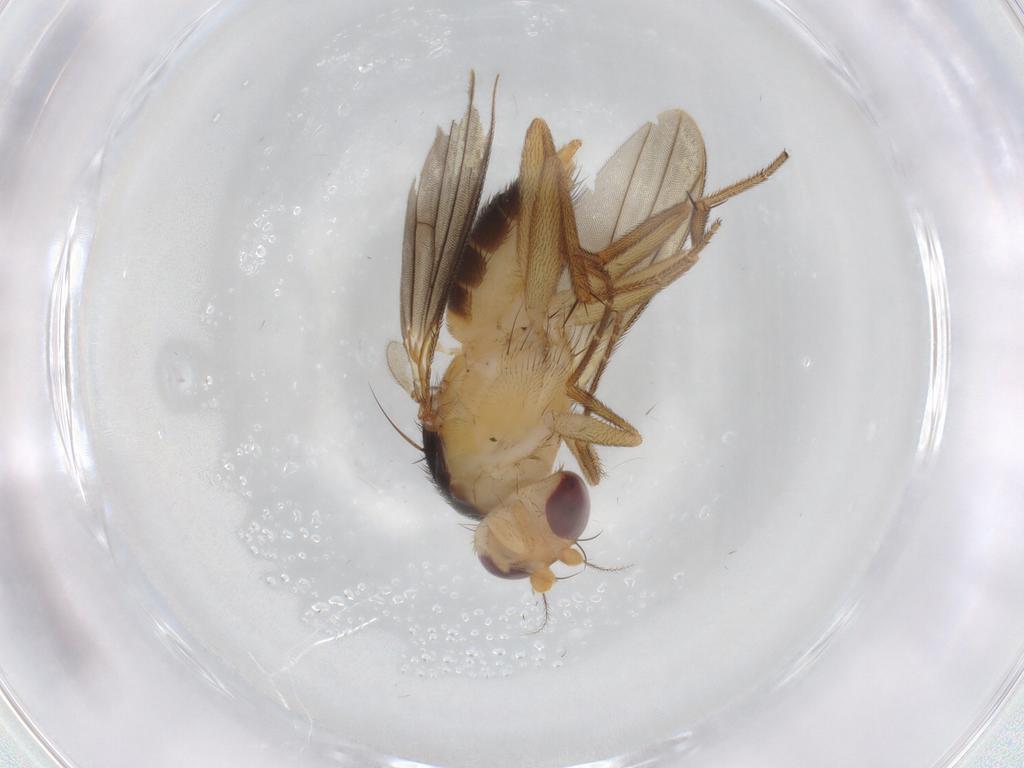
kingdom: Animalia
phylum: Arthropoda
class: Insecta
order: Diptera
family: Clusiidae
